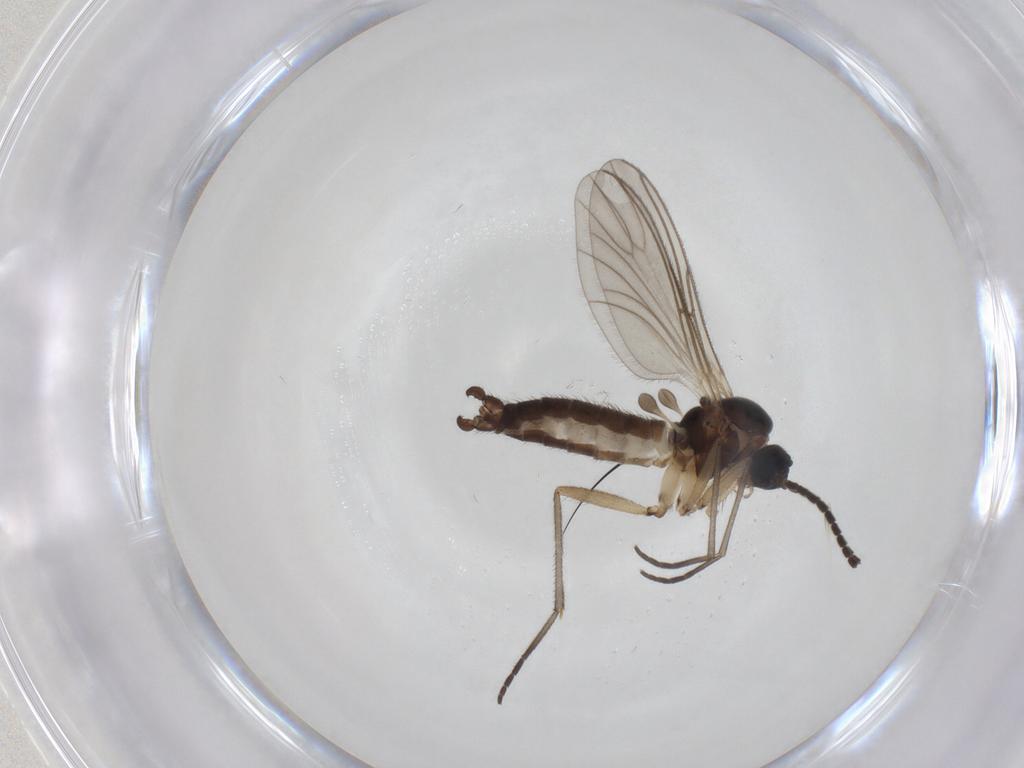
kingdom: Animalia
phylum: Arthropoda
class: Insecta
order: Diptera
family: Sciaridae
